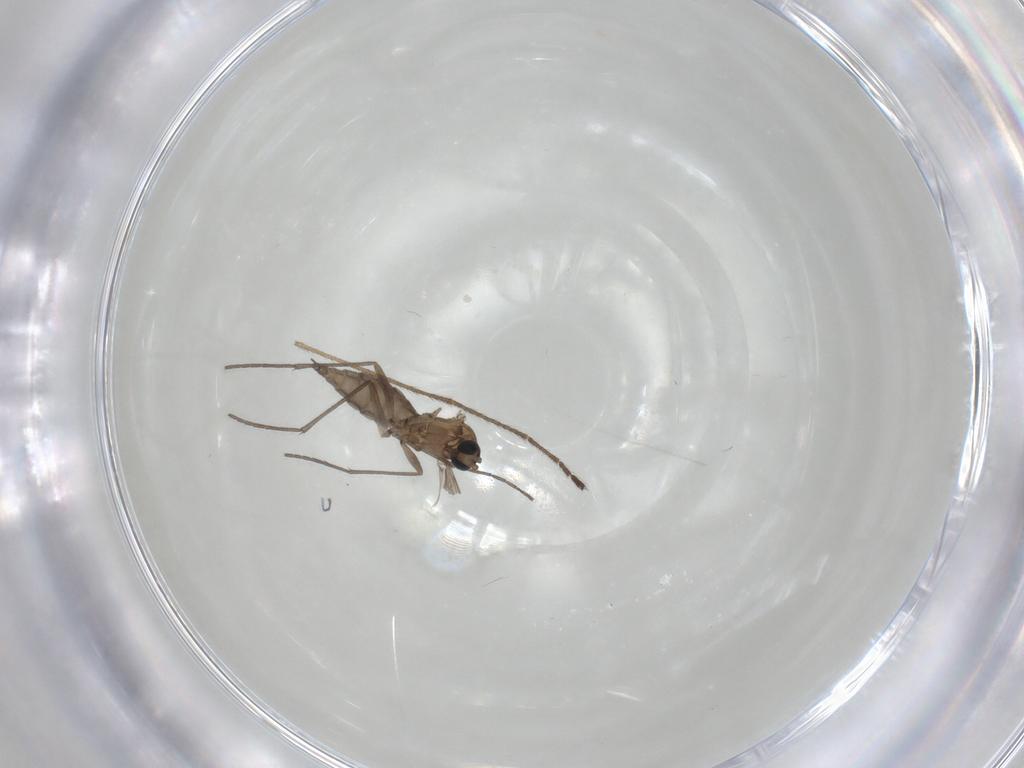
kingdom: Animalia
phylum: Arthropoda
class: Insecta
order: Diptera
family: Sciaridae
